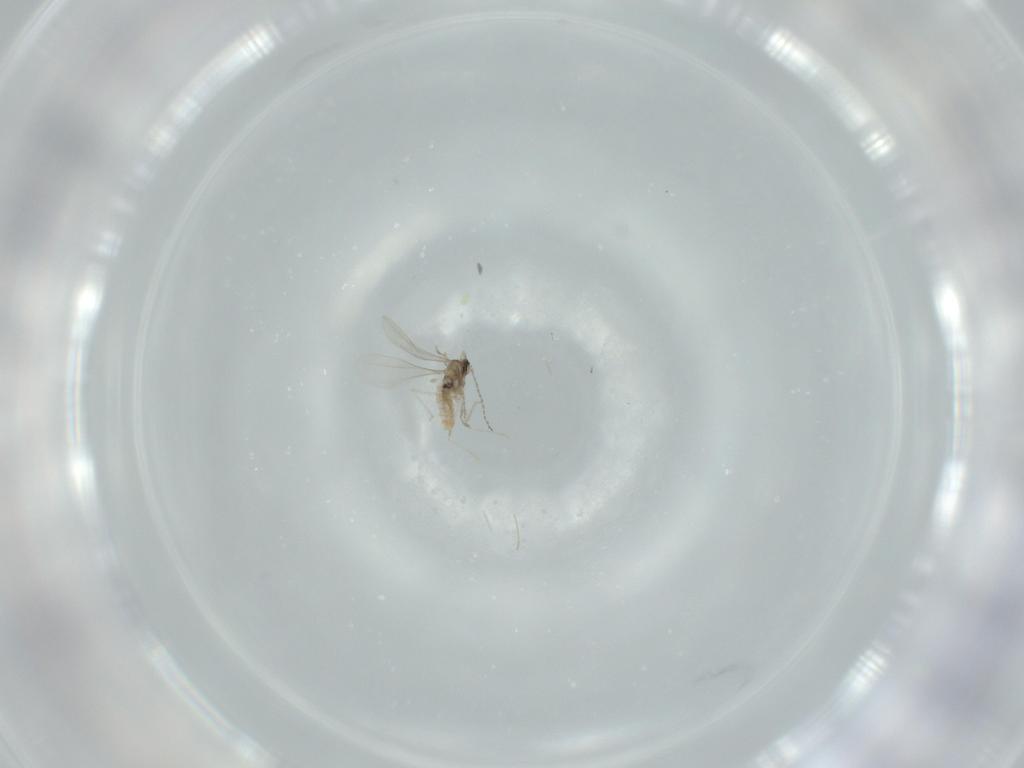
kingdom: Animalia
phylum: Arthropoda
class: Insecta
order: Diptera
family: Cecidomyiidae
